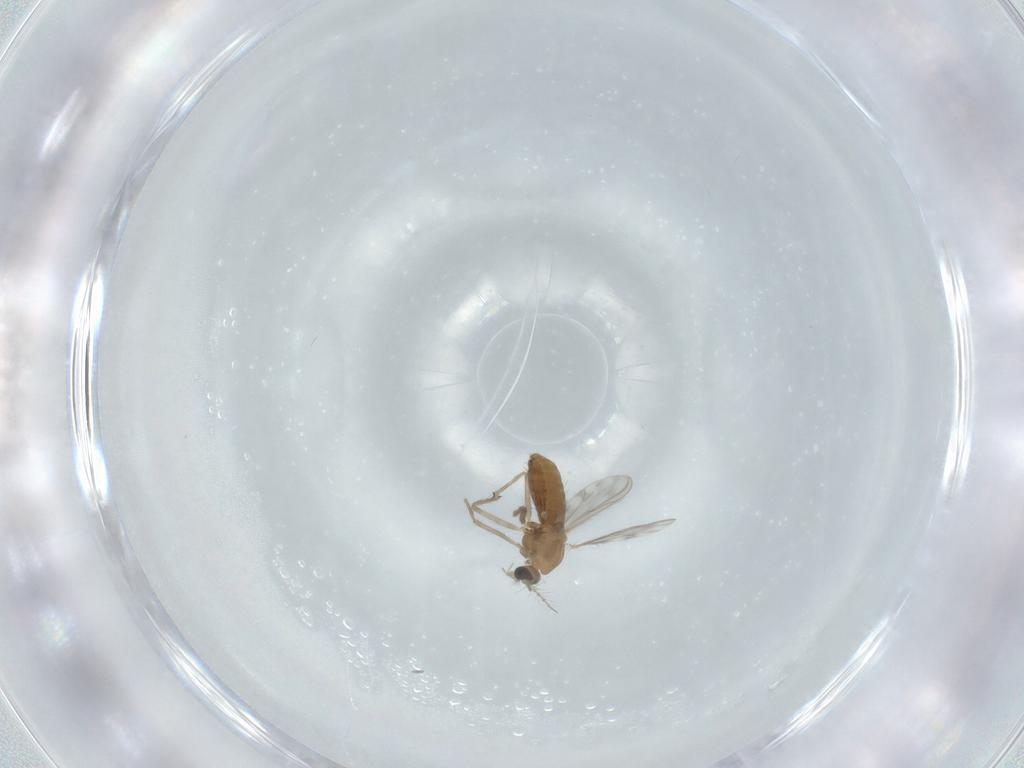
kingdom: Animalia
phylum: Arthropoda
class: Insecta
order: Diptera
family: Chironomidae
